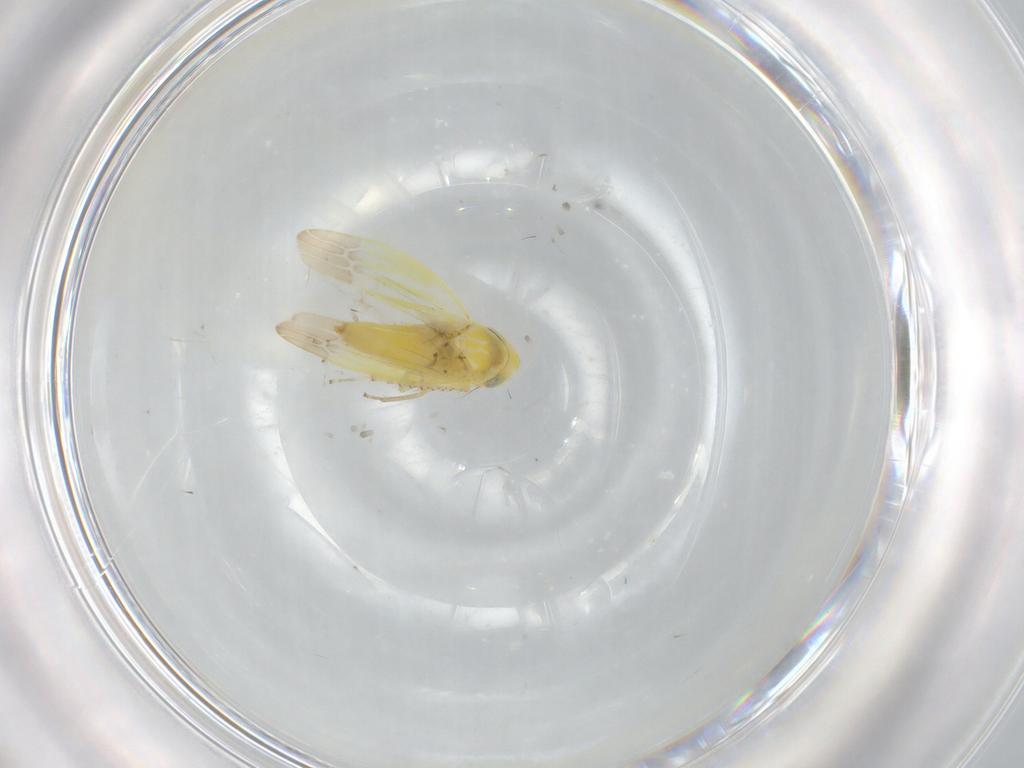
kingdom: Animalia
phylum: Arthropoda
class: Insecta
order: Hemiptera
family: Cicadellidae
